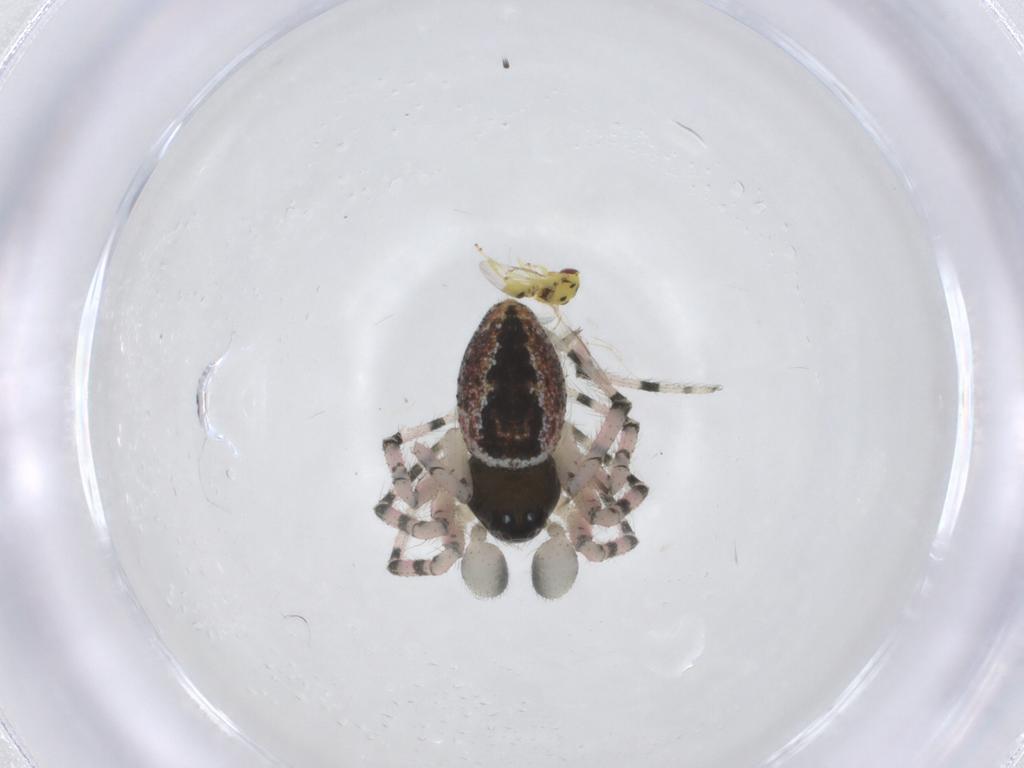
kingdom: Animalia
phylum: Arthropoda
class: Arachnida
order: Araneae
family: Theridiidae
